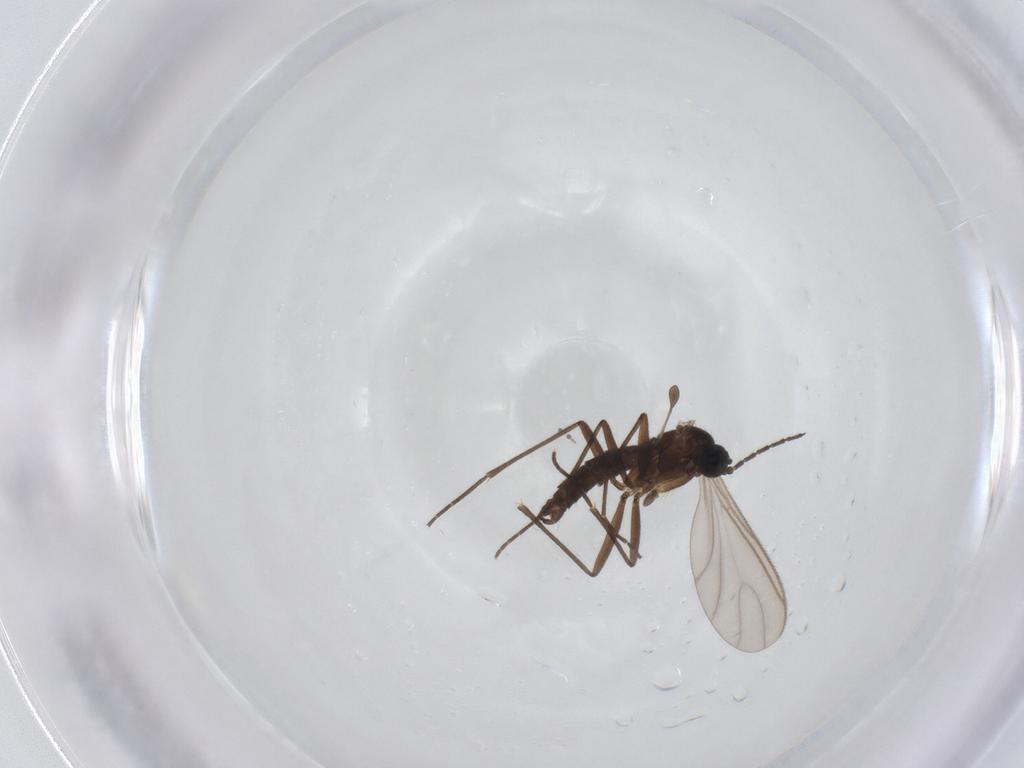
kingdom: Animalia
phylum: Arthropoda
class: Insecta
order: Diptera
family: Sciaridae
